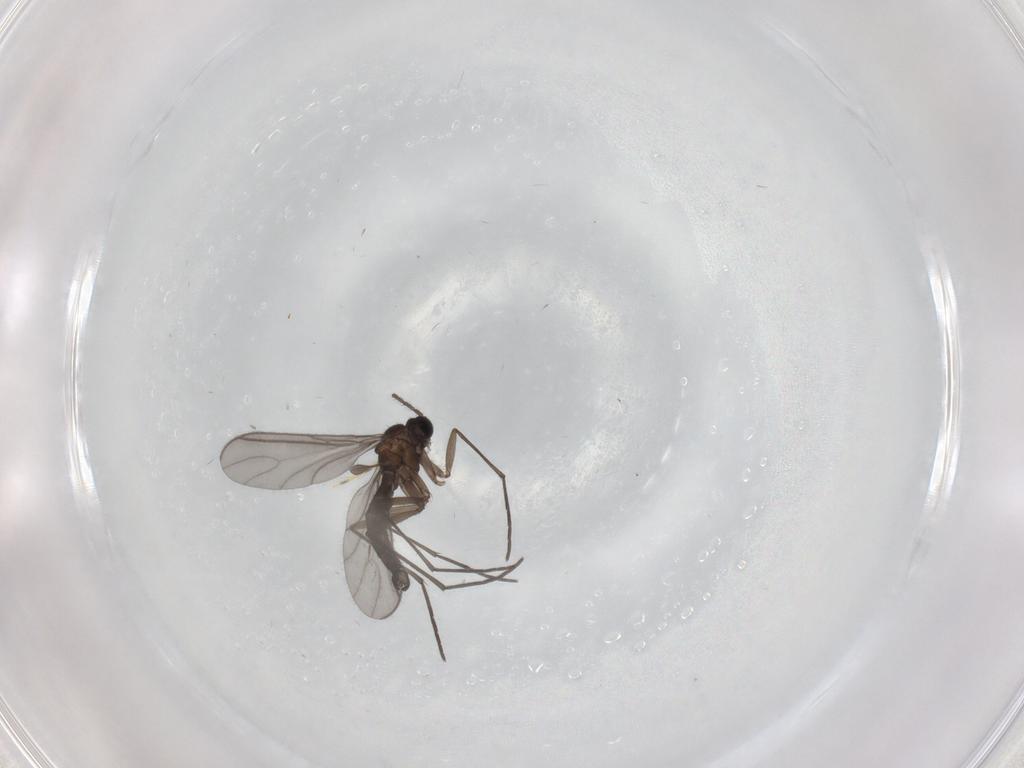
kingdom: Animalia
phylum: Arthropoda
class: Insecta
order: Diptera
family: Sciaridae
